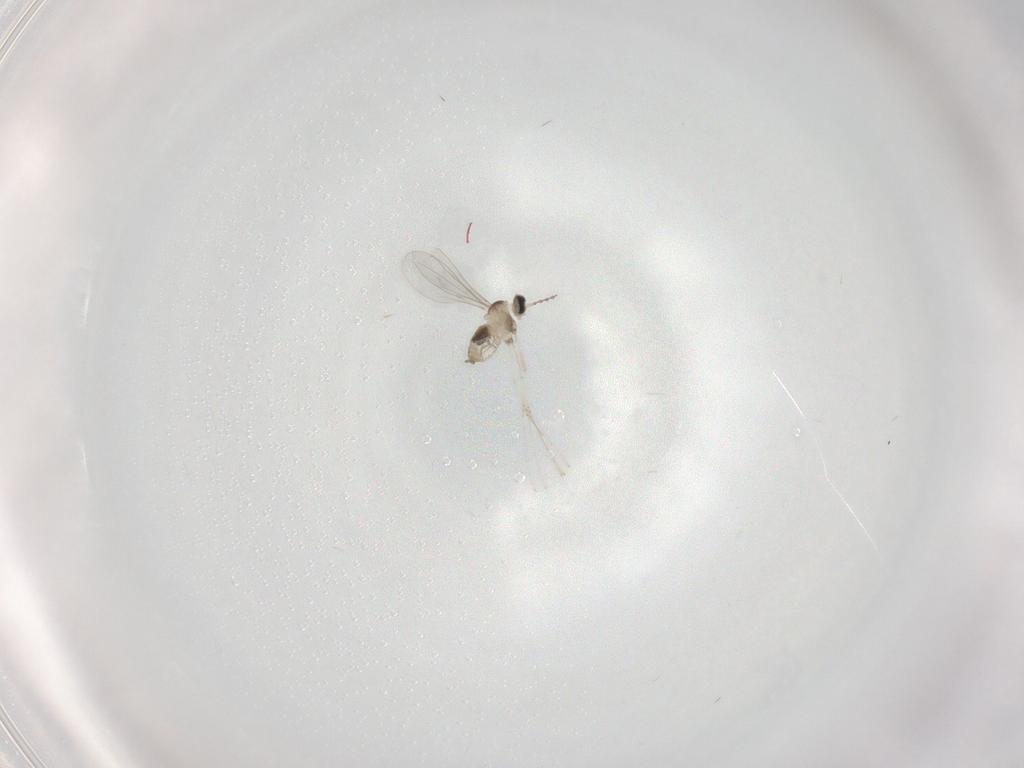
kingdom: Animalia
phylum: Arthropoda
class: Insecta
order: Diptera
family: Cecidomyiidae
